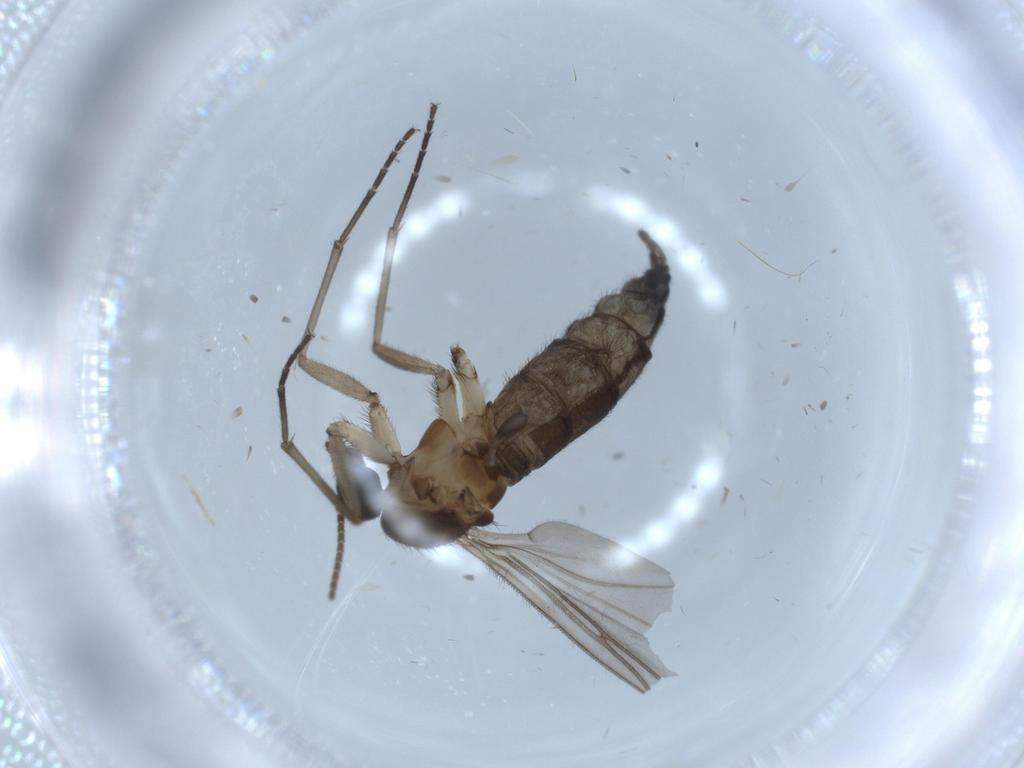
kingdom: Animalia
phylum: Arthropoda
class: Insecta
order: Diptera
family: Sciaridae
